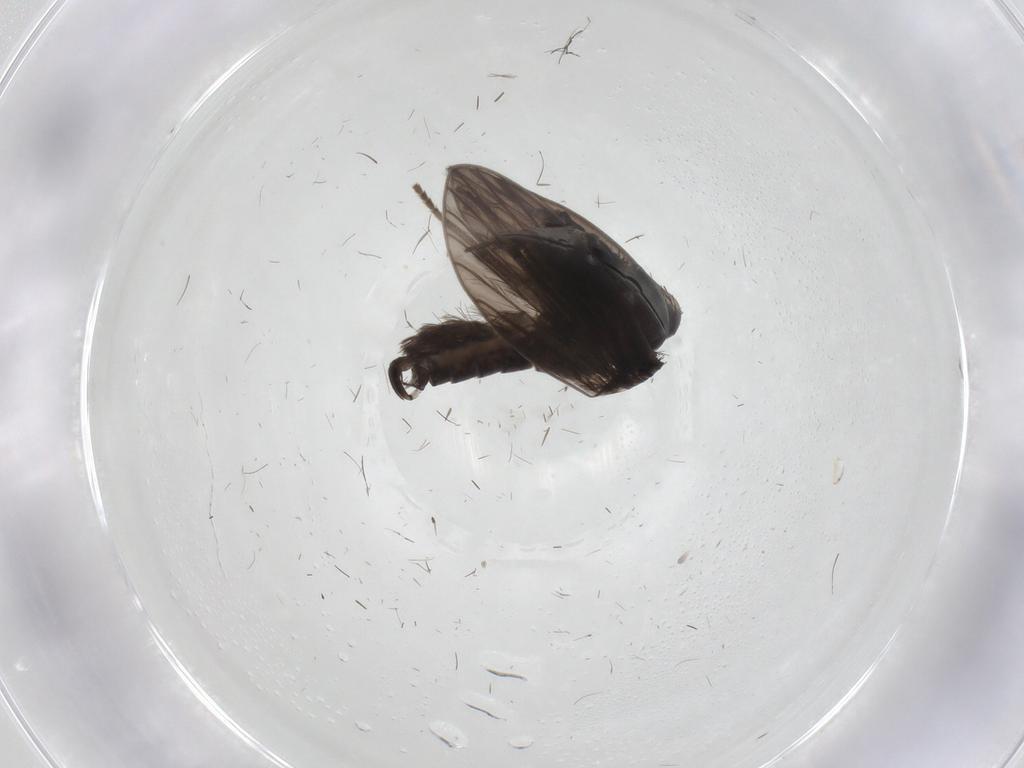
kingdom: Animalia
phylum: Arthropoda
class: Insecta
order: Diptera
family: Psychodidae
